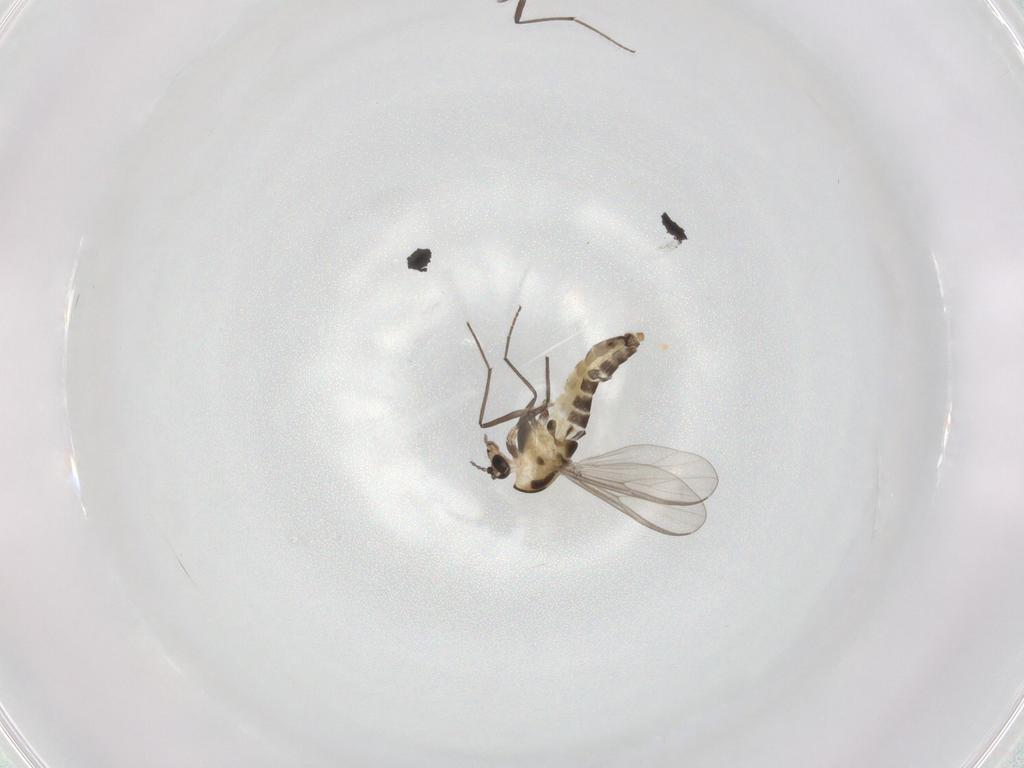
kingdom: Animalia
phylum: Arthropoda
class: Insecta
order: Diptera
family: Chironomidae
